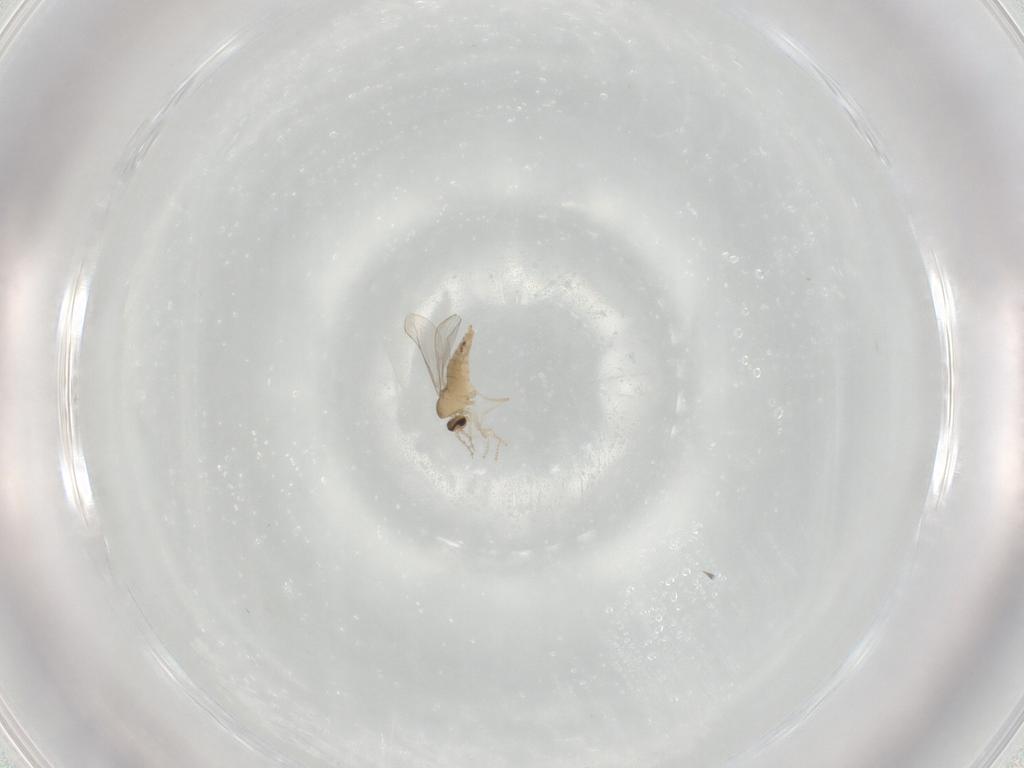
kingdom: Animalia
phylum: Arthropoda
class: Insecta
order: Diptera
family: Cecidomyiidae
